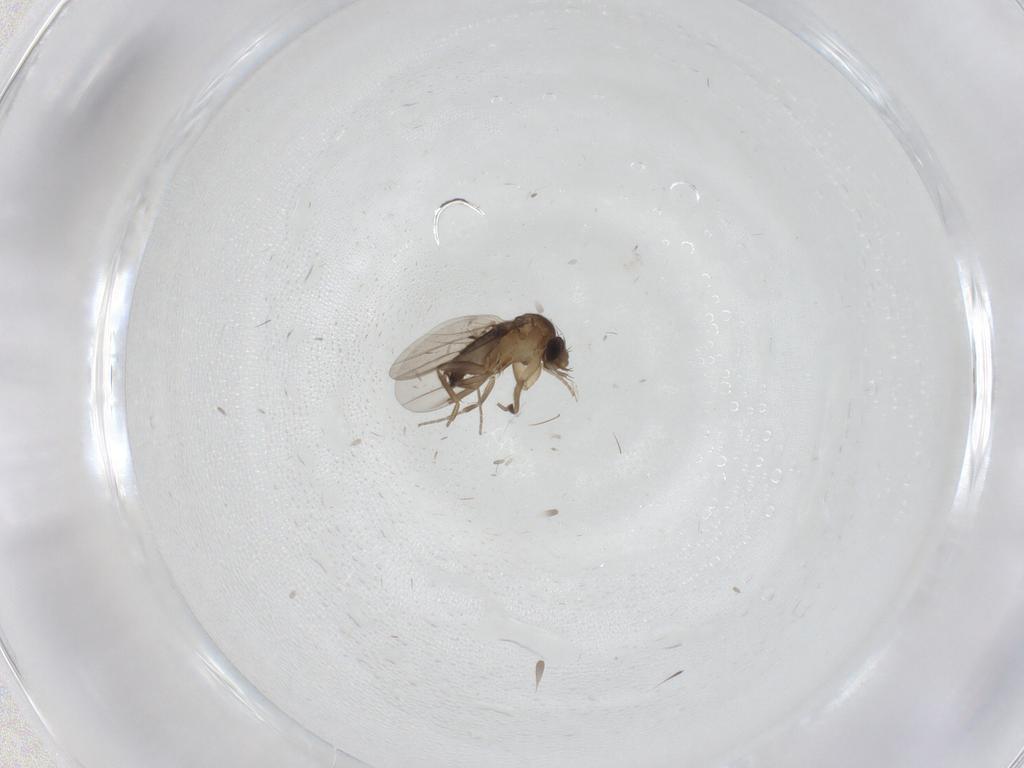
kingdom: Animalia
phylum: Arthropoda
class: Insecta
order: Diptera
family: Phoridae
